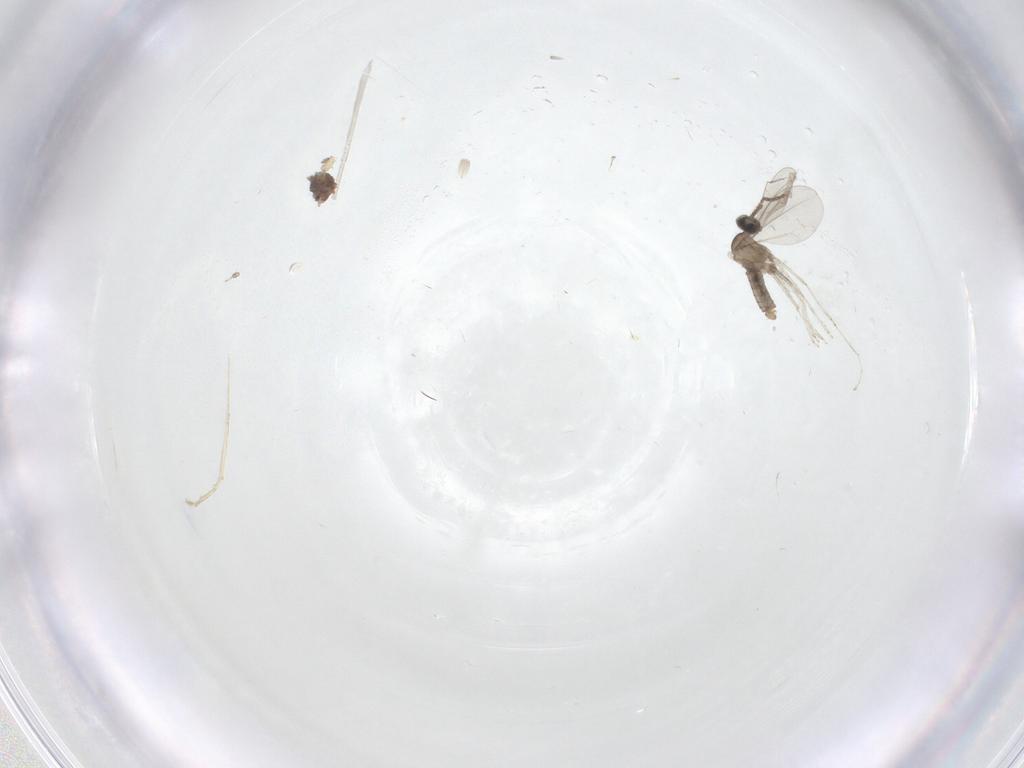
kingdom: Animalia
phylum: Arthropoda
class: Insecta
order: Diptera
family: Cecidomyiidae
